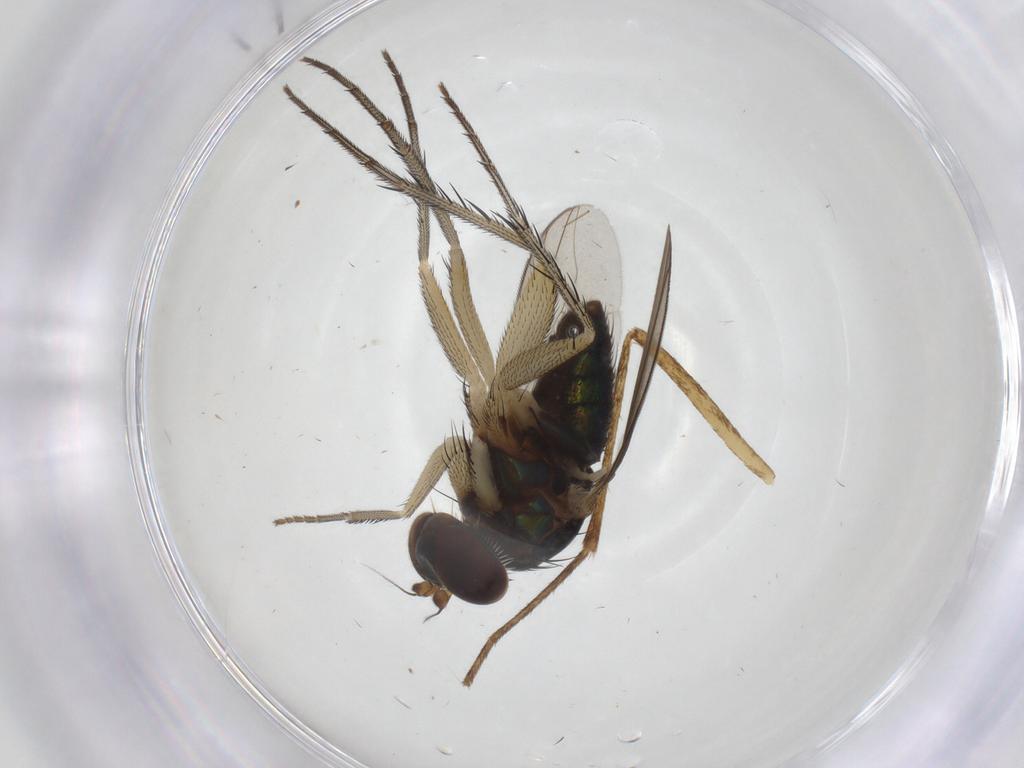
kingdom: Animalia
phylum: Arthropoda
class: Insecta
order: Diptera
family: Dolichopodidae
